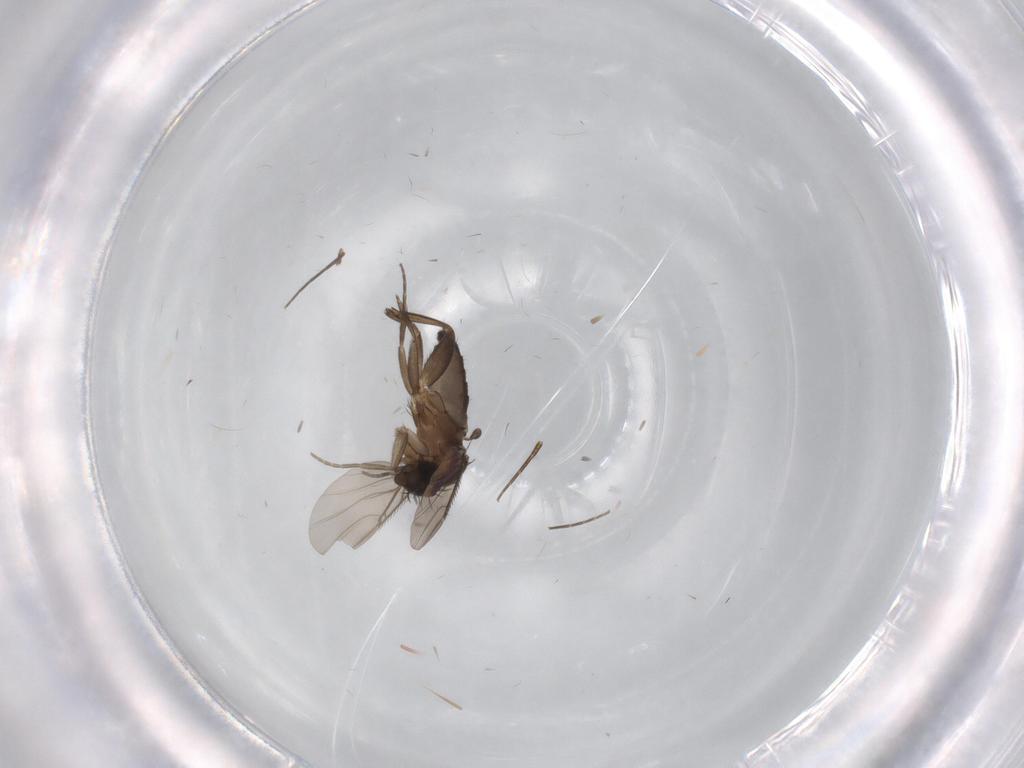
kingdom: Animalia
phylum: Arthropoda
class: Insecta
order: Diptera
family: Phoridae
